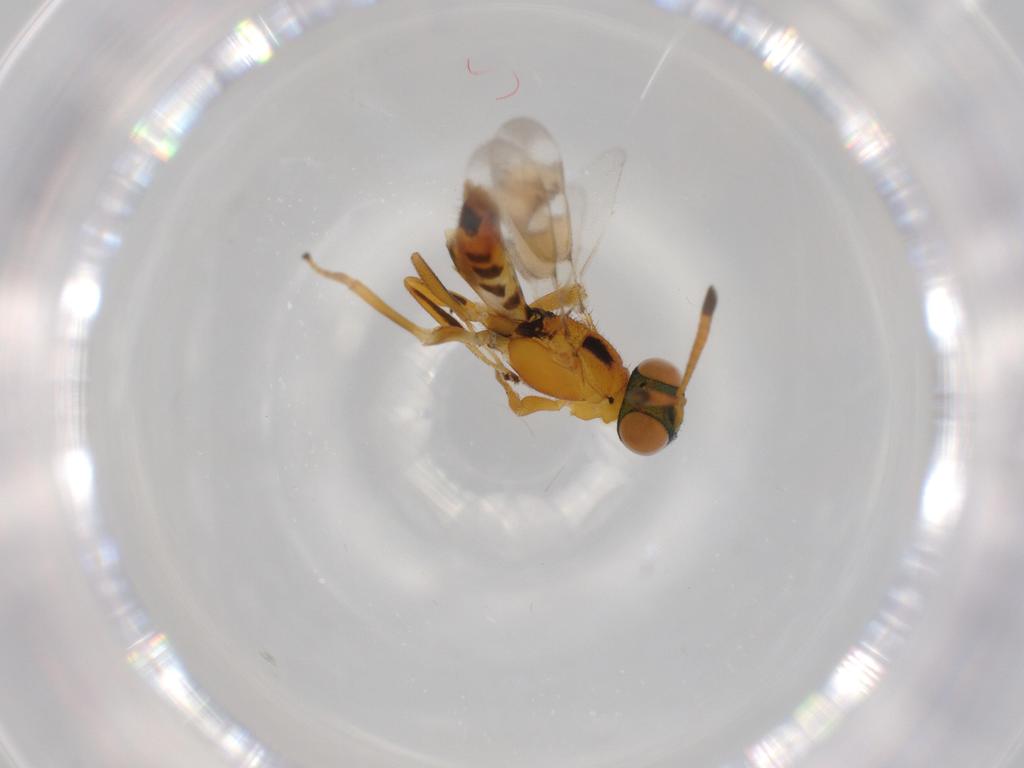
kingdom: Animalia
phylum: Arthropoda
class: Insecta
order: Hymenoptera
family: Eupelmidae
